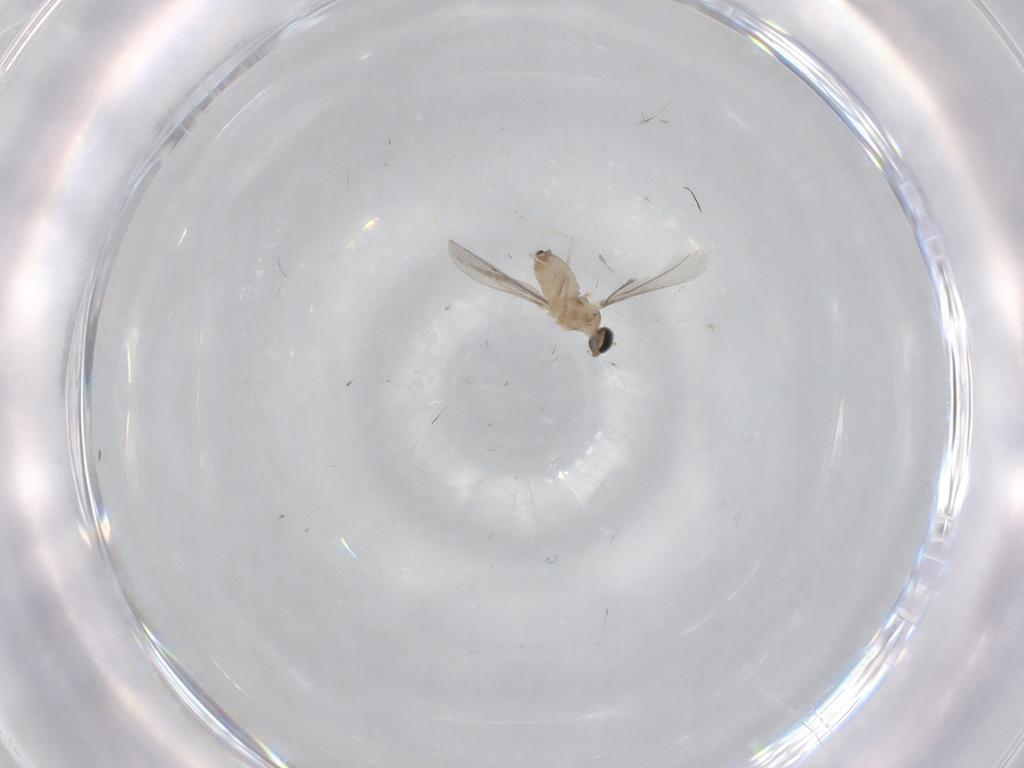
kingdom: Animalia
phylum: Arthropoda
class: Insecta
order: Diptera
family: Cecidomyiidae
